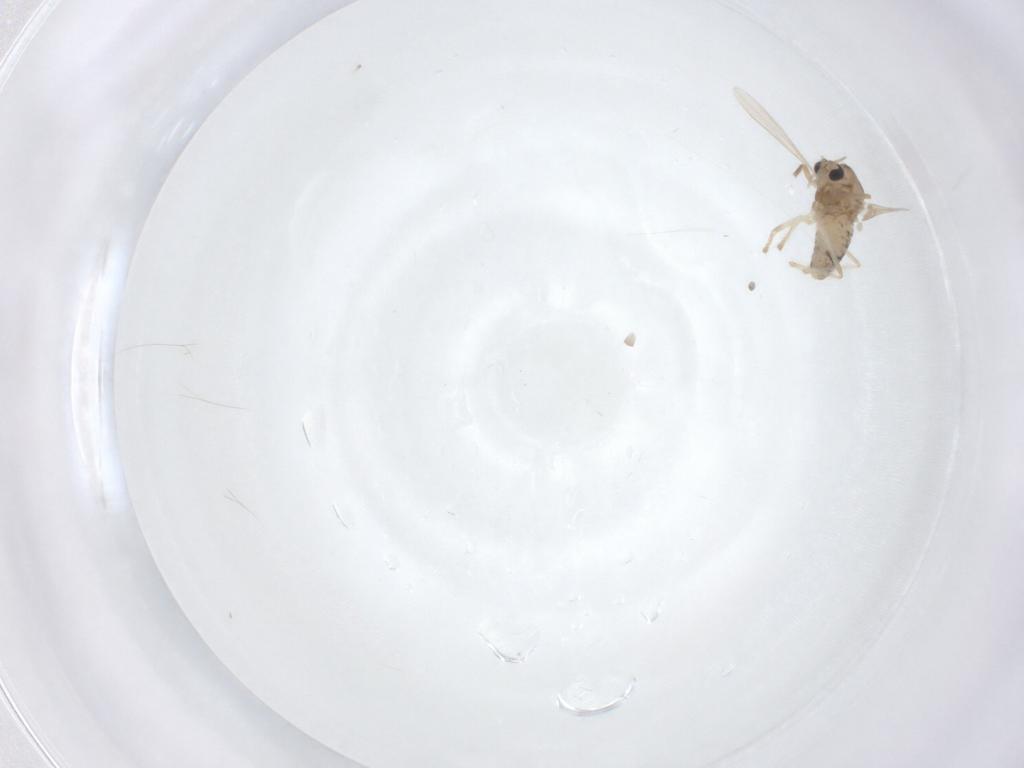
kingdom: Animalia
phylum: Arthropoda
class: Insecta
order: Diptera
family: Chironomidae
